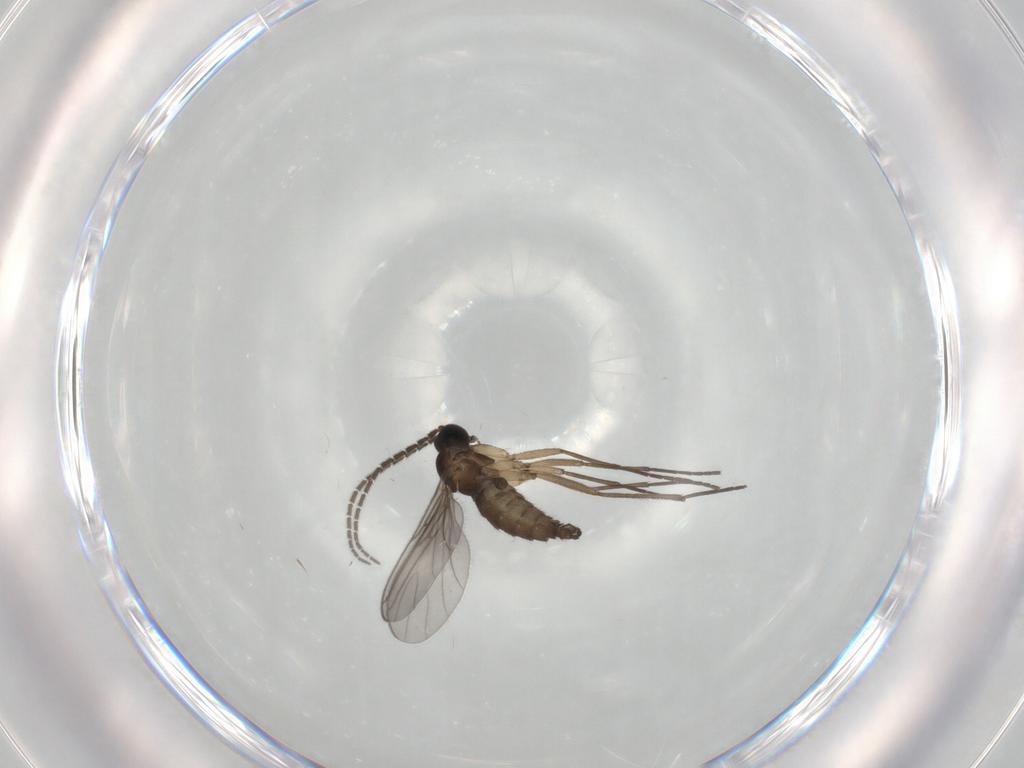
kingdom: Animalia
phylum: Arthropoda
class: Insecta
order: Diptera
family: Sciaridae
